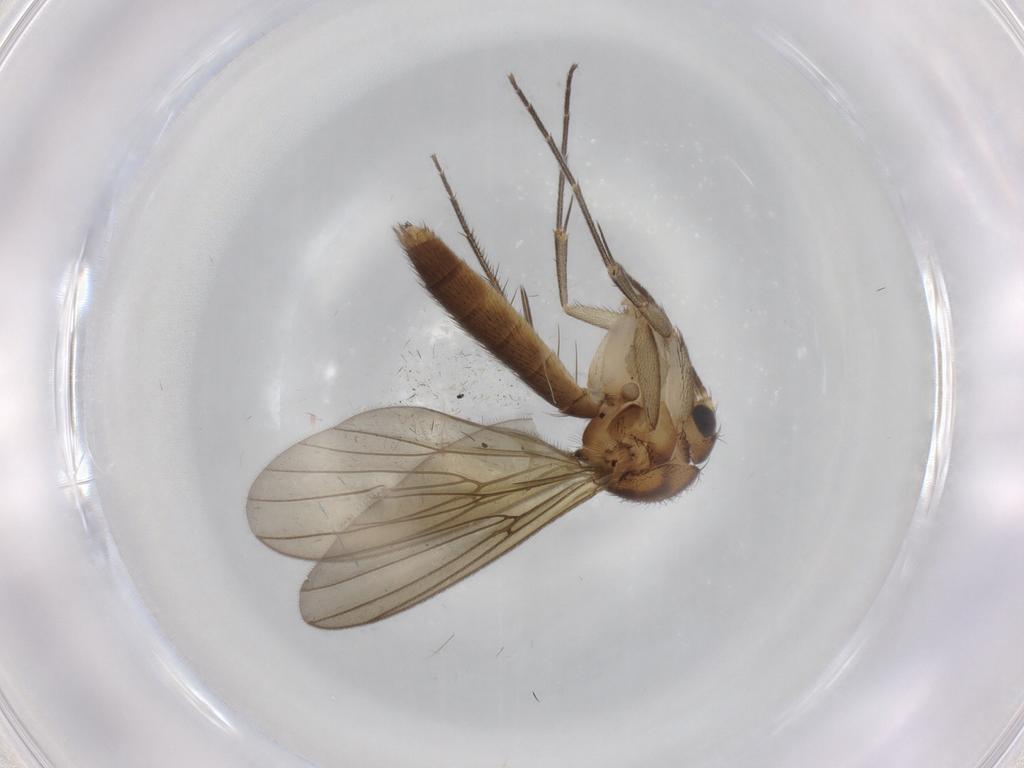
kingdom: Animalia
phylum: Arthropoda
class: Insecta
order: Diptera
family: Mycetophilidae
